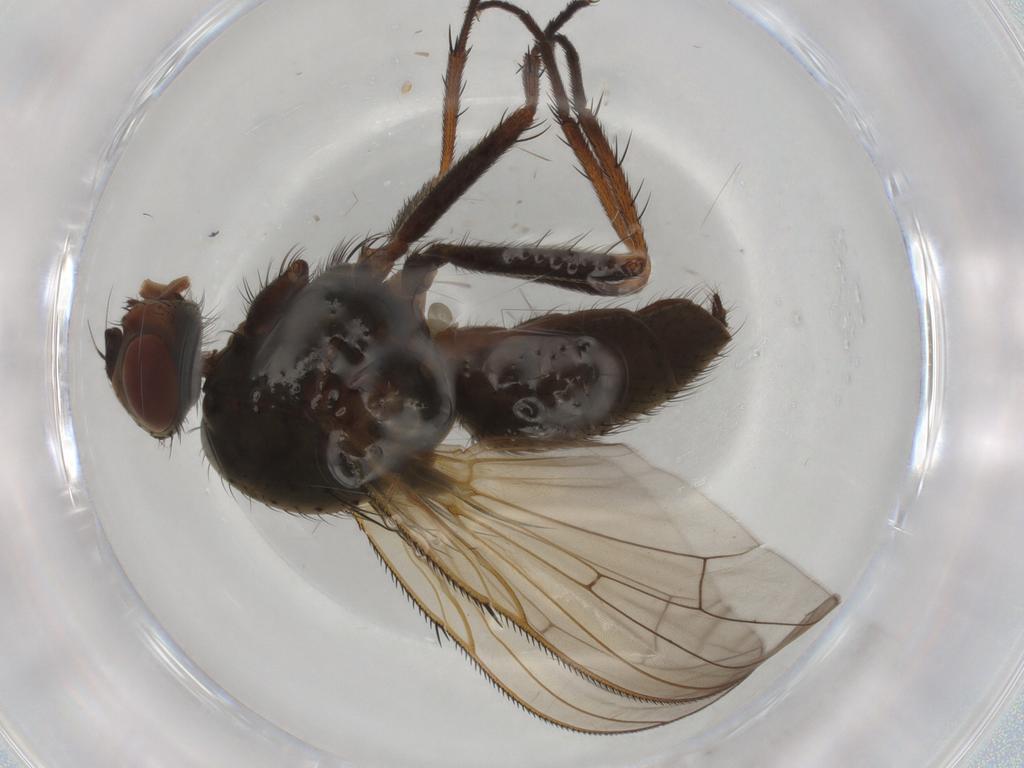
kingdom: Animalia
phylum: Arthropoda
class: Insecta
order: Diptera
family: Anthomyiidae
